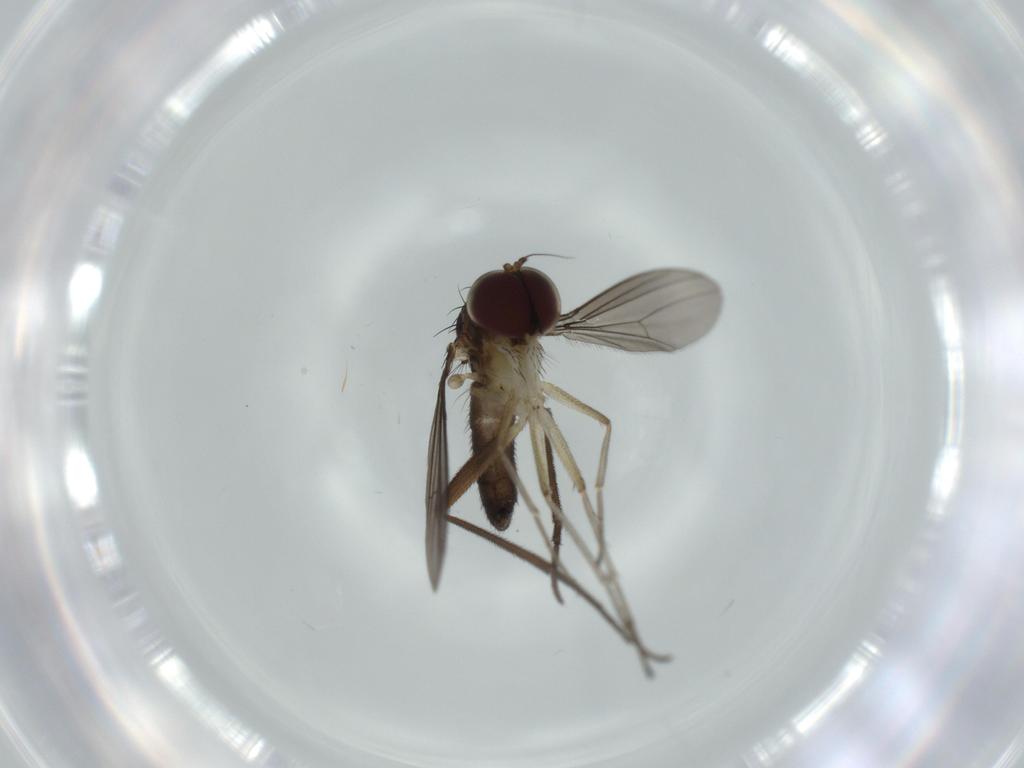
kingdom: Animalia
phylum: Arthropoda
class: Insecta
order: Diptera
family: Dolichopodidae
